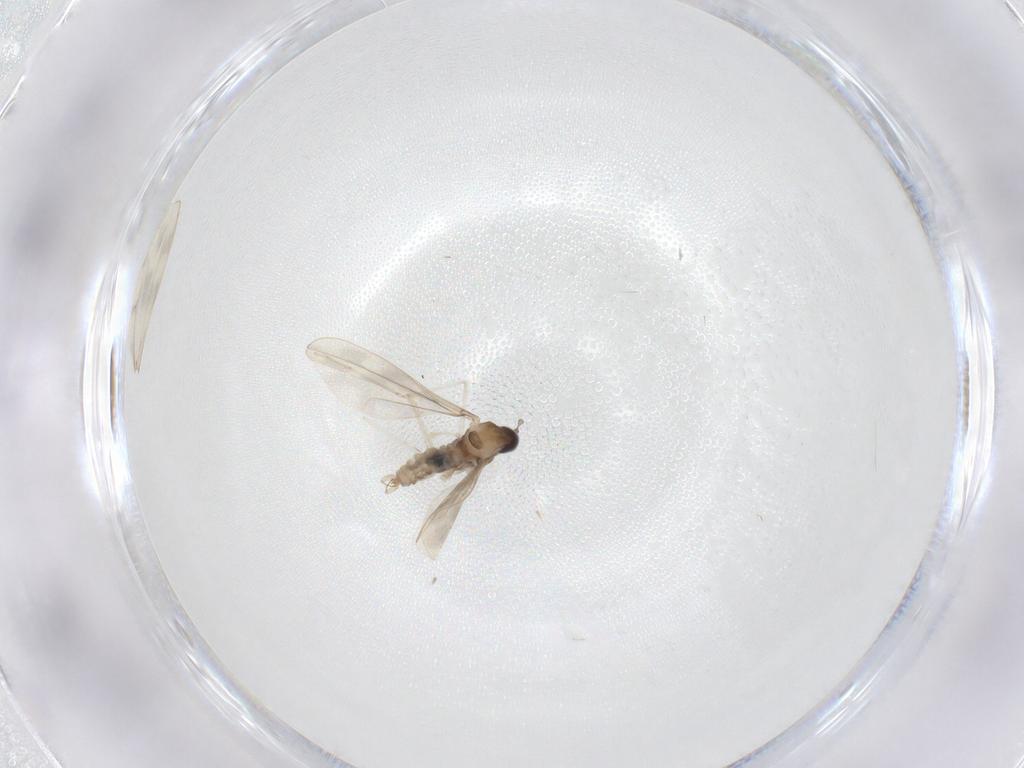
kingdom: Animalia
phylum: Arthropoda
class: Insecta
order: Diptera
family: Cecidomyiidae
